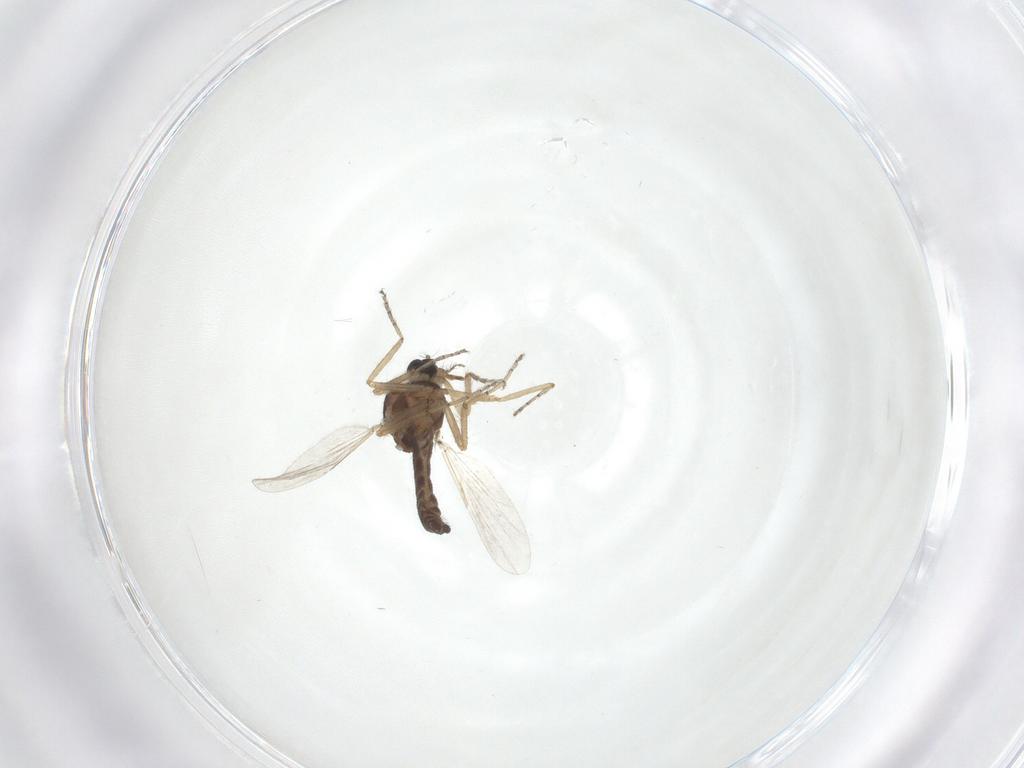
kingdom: Animalia
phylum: Arthropoda
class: Insecta
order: Diptera
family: Ceratopogonidae
